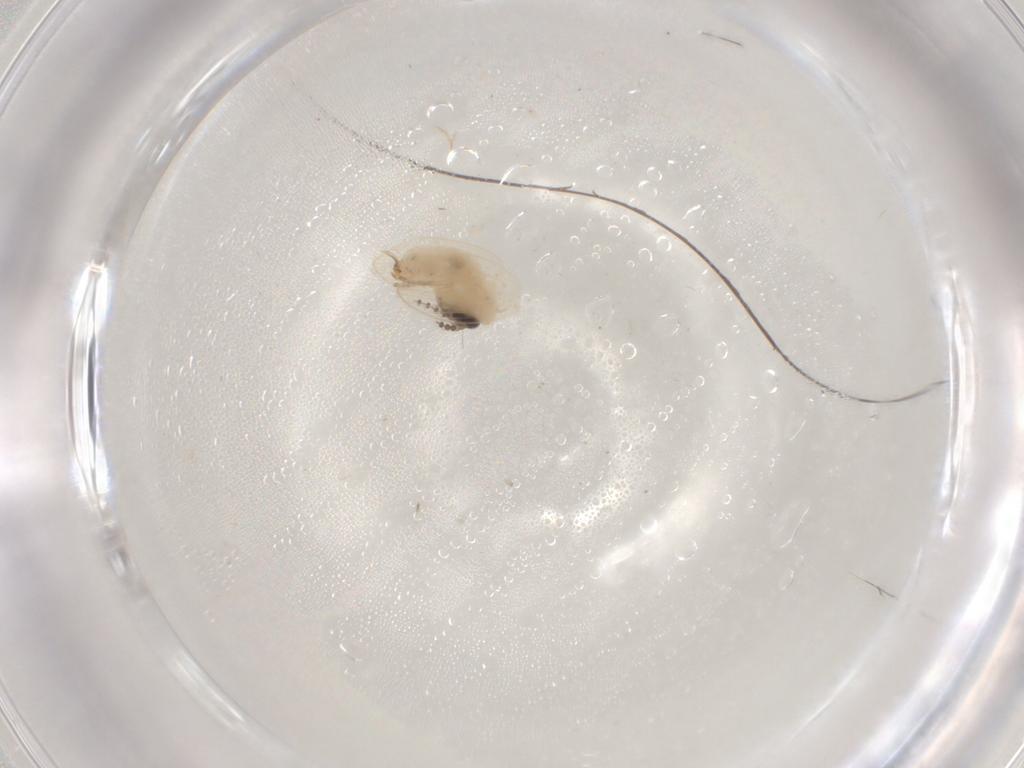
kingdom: Animalia
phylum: Arthropoda
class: Insecta
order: Diptera
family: Psychodidae
